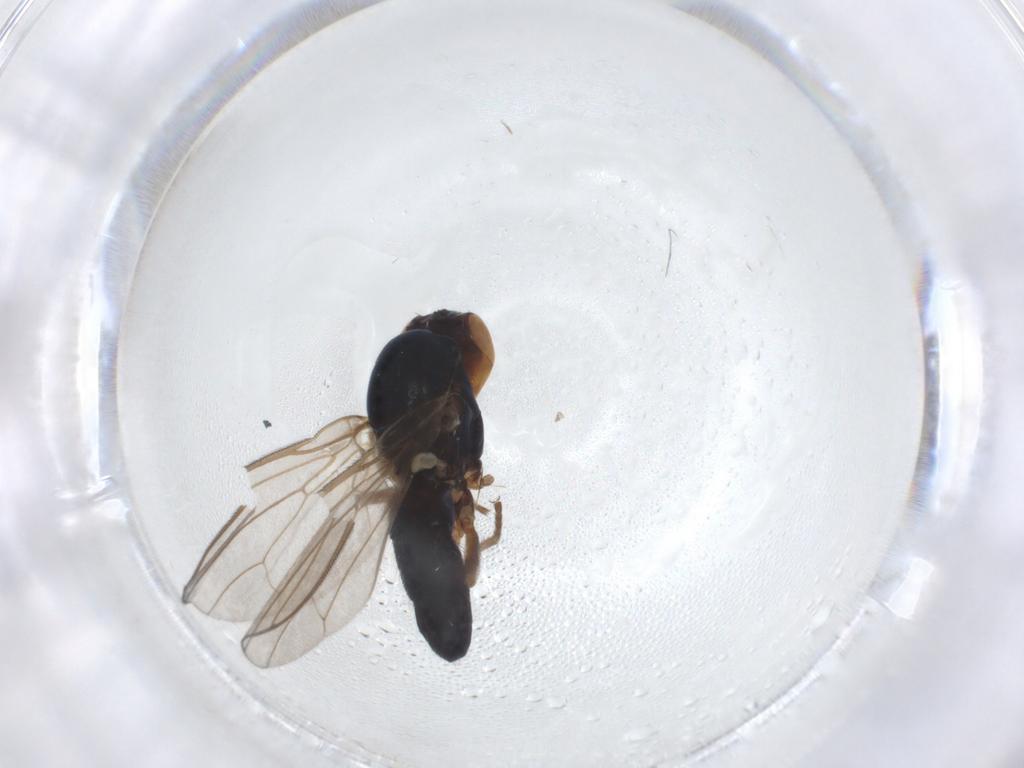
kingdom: Animalia
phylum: Arthropoda
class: Insecta
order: Diptera
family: Psilidae
